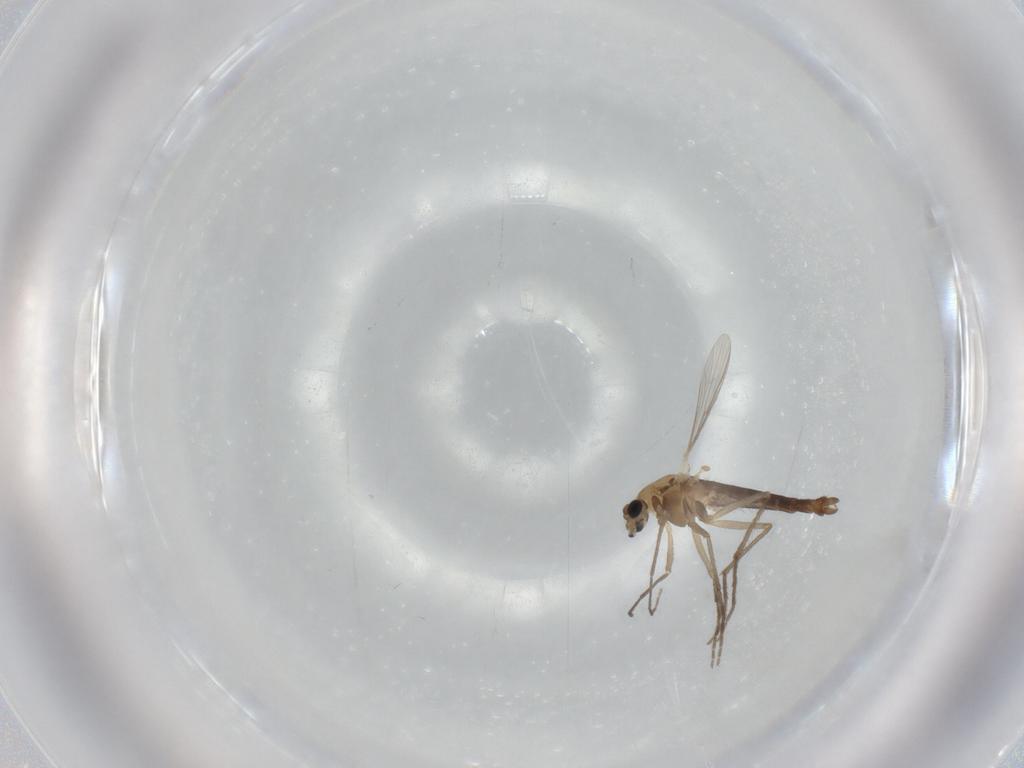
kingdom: Animalia
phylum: Arthropoda
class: Insecta
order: Diptera
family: Chironomidae
